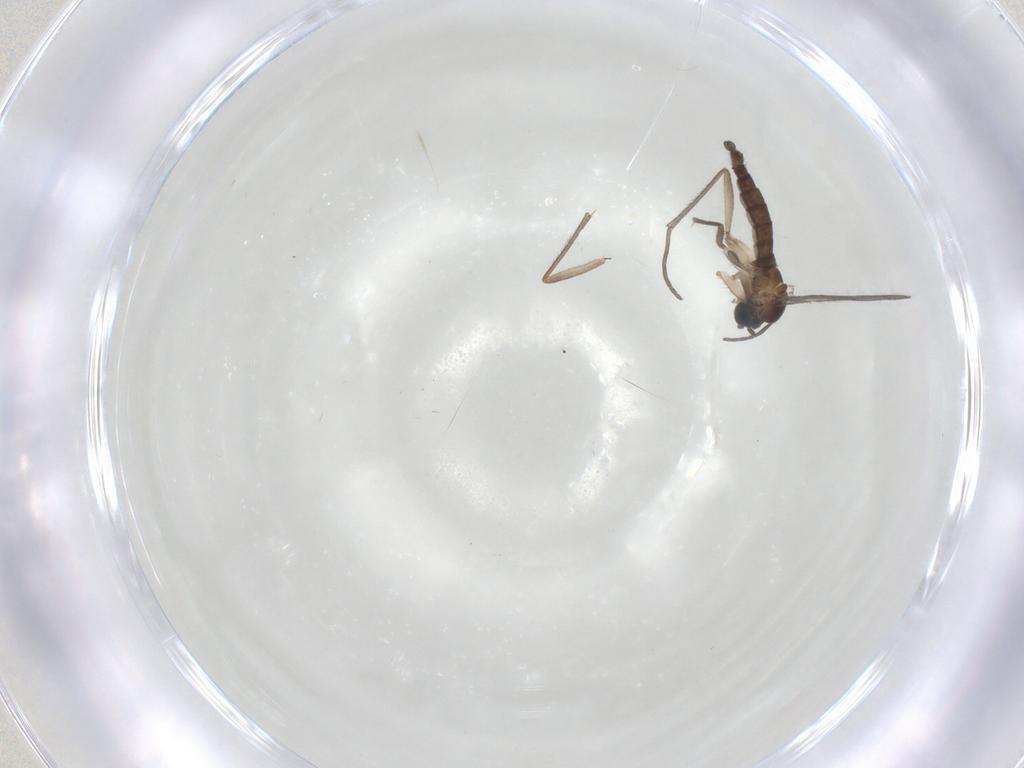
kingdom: Animalia
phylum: Arthropoda
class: Insecta
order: Diptera
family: Sciaridae
